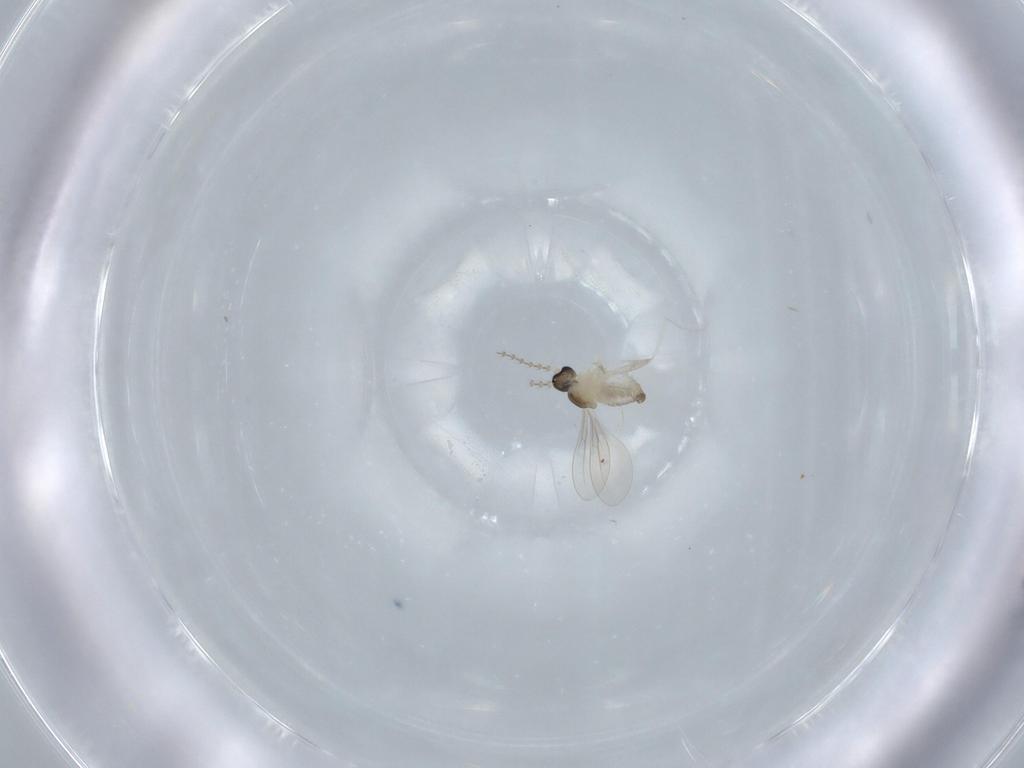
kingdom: Animalia
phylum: Arthropoda
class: Insecta
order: Diptera
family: Cecidomyiidae
